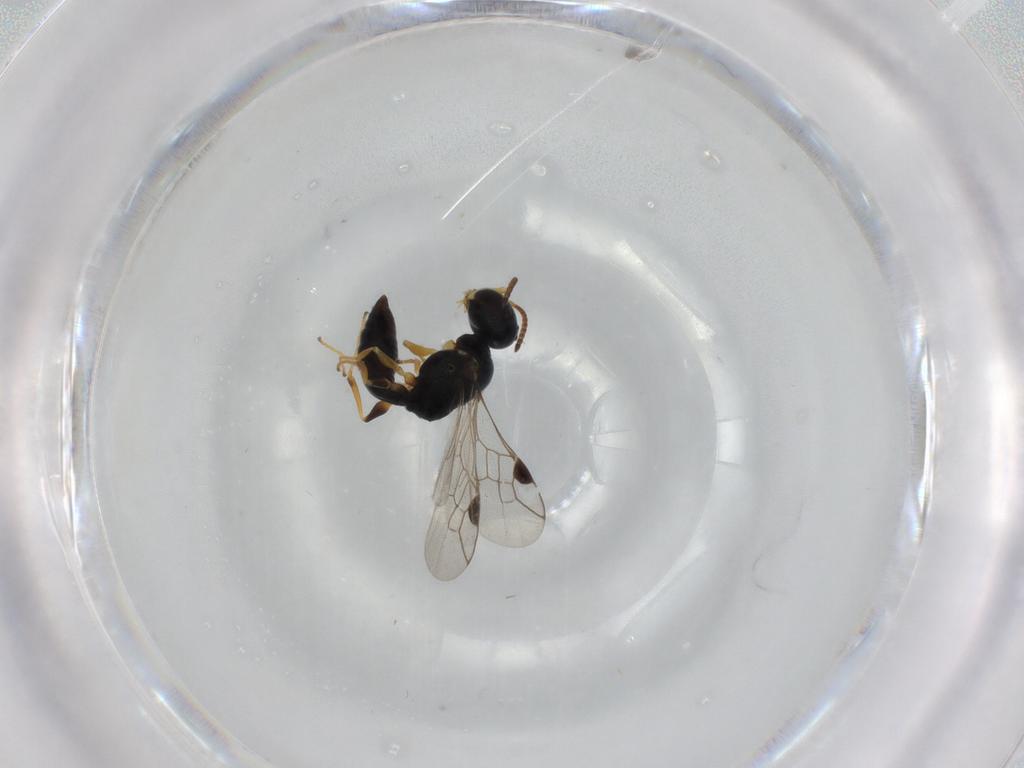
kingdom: Animalia
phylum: Arthropoda
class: Insecta
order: Hymenoptera
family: Pemphredonidae
